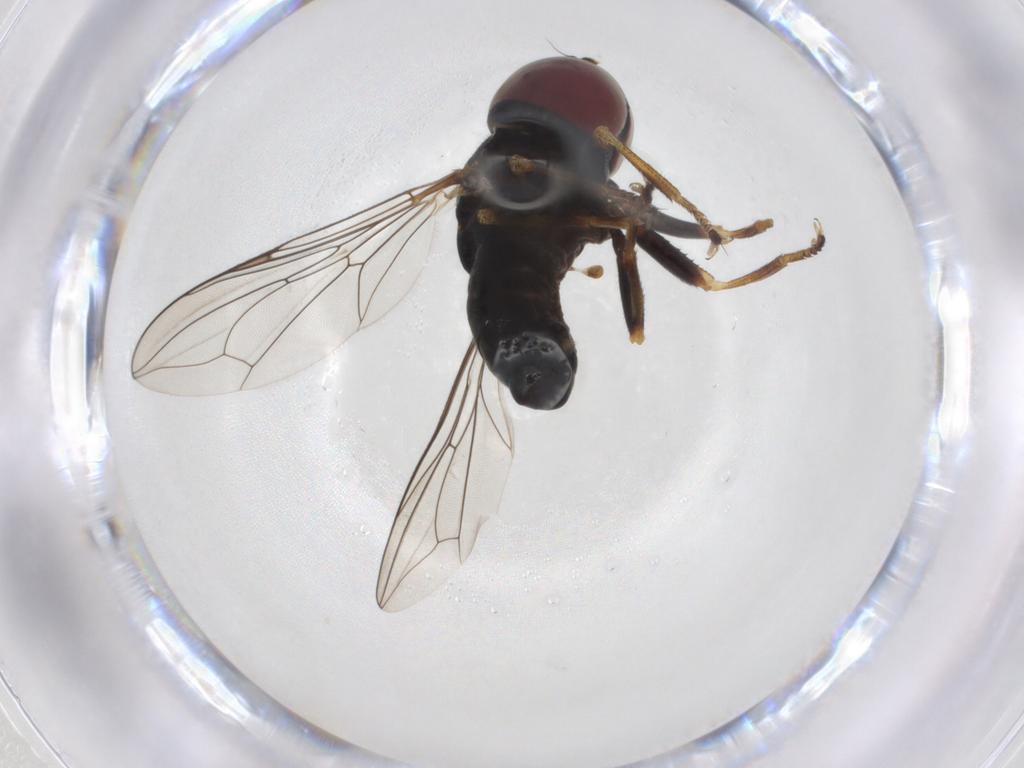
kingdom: Animalia
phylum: Arthropoda
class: Insecta
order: Diptera
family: Pipunculidae
